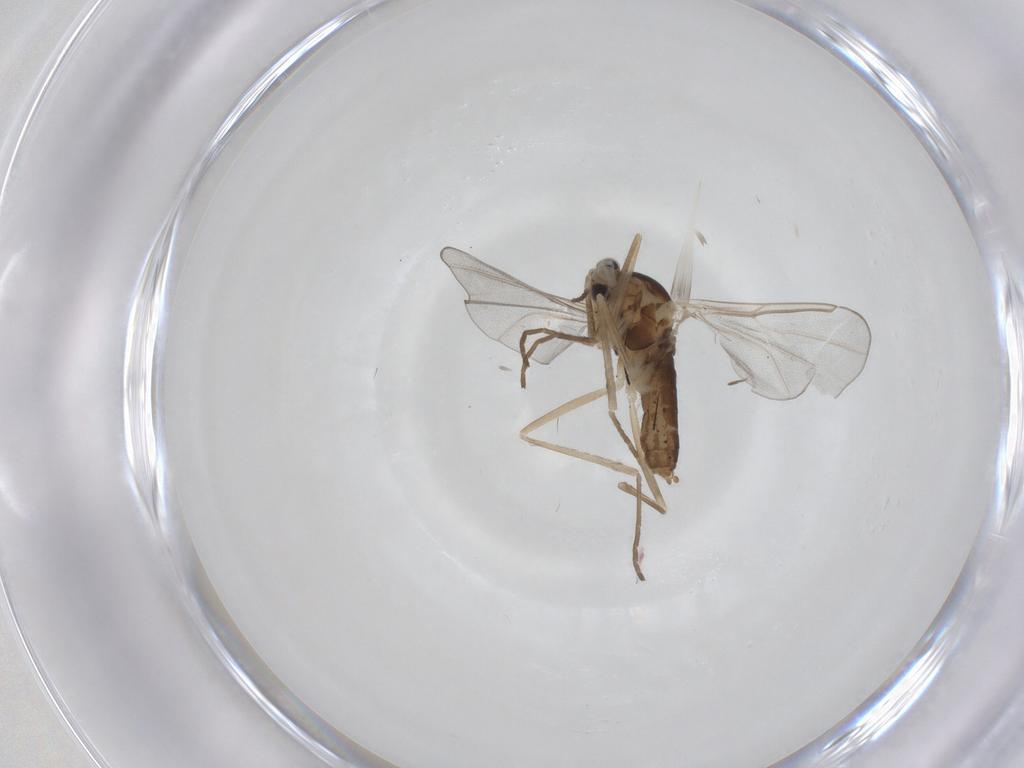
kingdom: Animalia
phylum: Arthropoda
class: Insecta
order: Diptera
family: Cecidomyiidae
